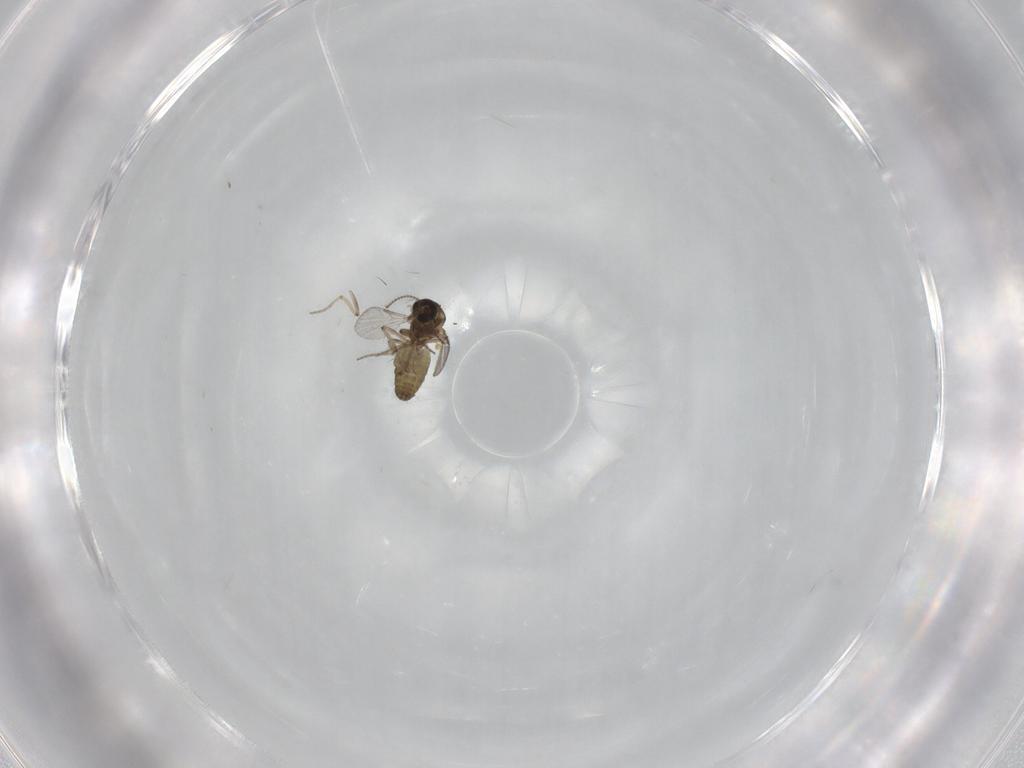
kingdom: Animalia
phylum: Arthropoda
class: Insecta
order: Diptera
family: Ceratopogonidae
